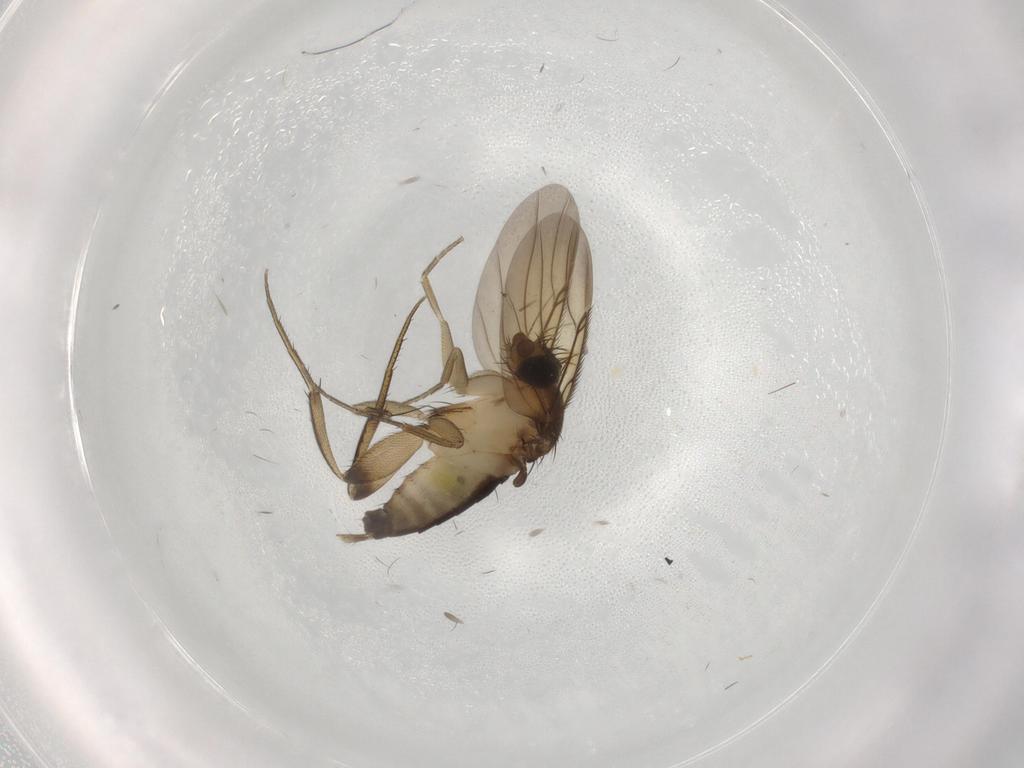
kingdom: Animalia
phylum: Arthropoda
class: Insecta
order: Diptera
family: Phoridae
